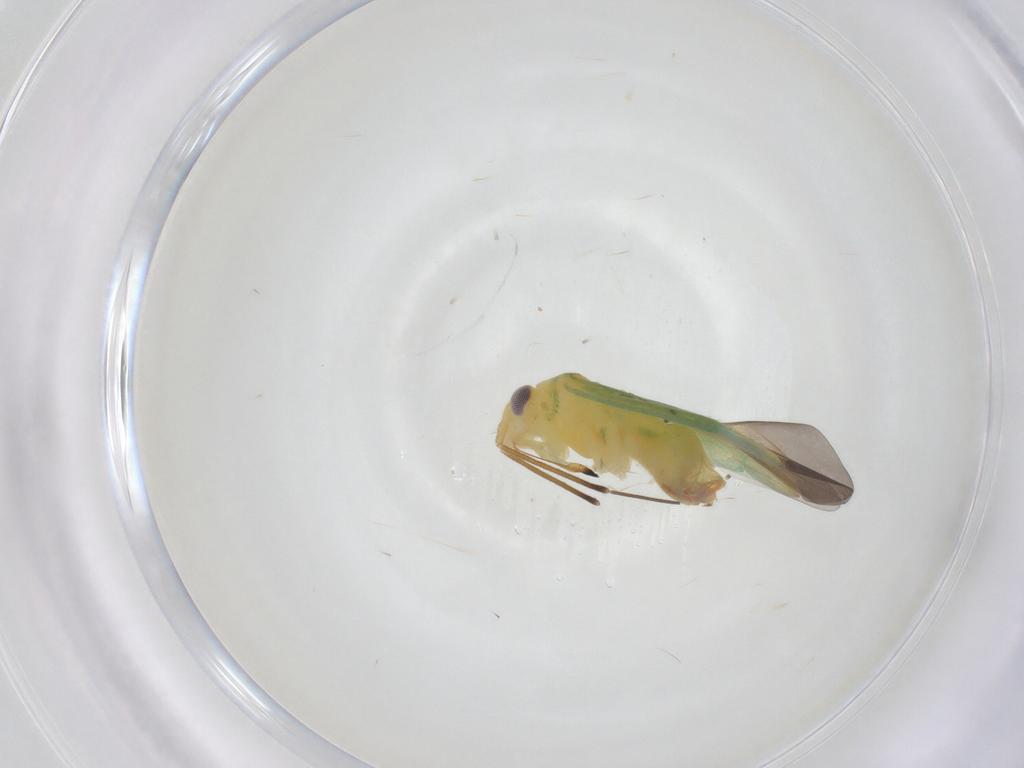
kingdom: Animalia
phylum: Arthropoda
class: Insecta
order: Hemiptera
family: Miridae
